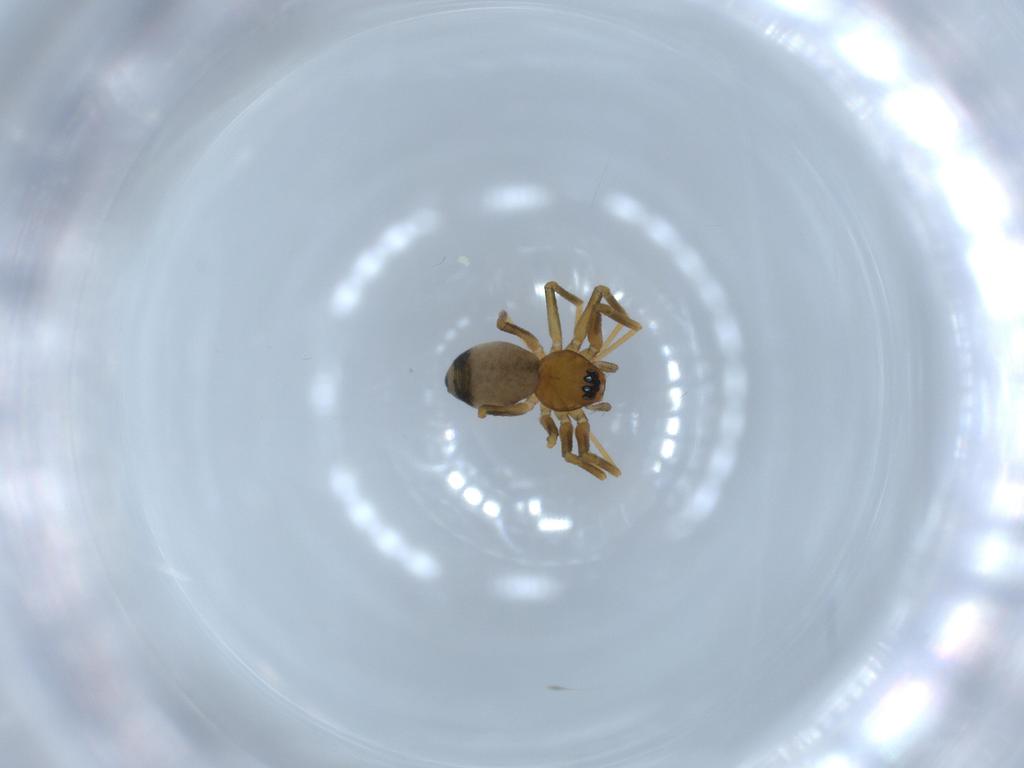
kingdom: Animalia
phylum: Arthropoda
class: Arachnida
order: Araneae
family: Linyphiidae
